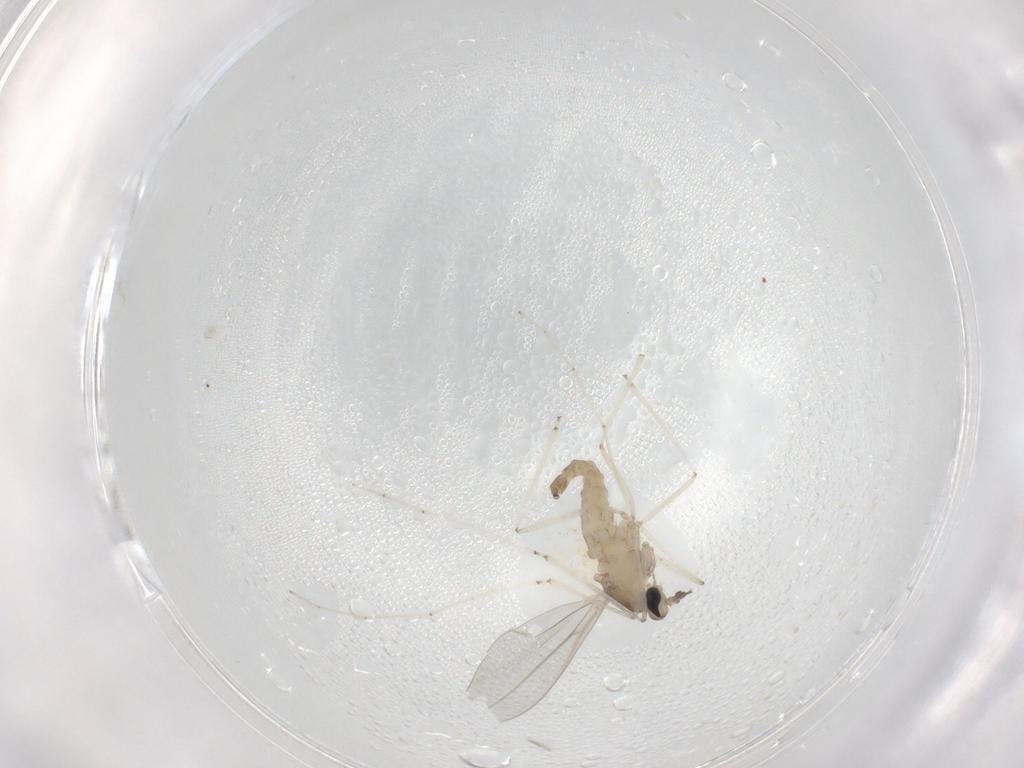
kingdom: Animalia
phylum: Arthropoda
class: Insecta
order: Diptera
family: Cecidomyiidae
